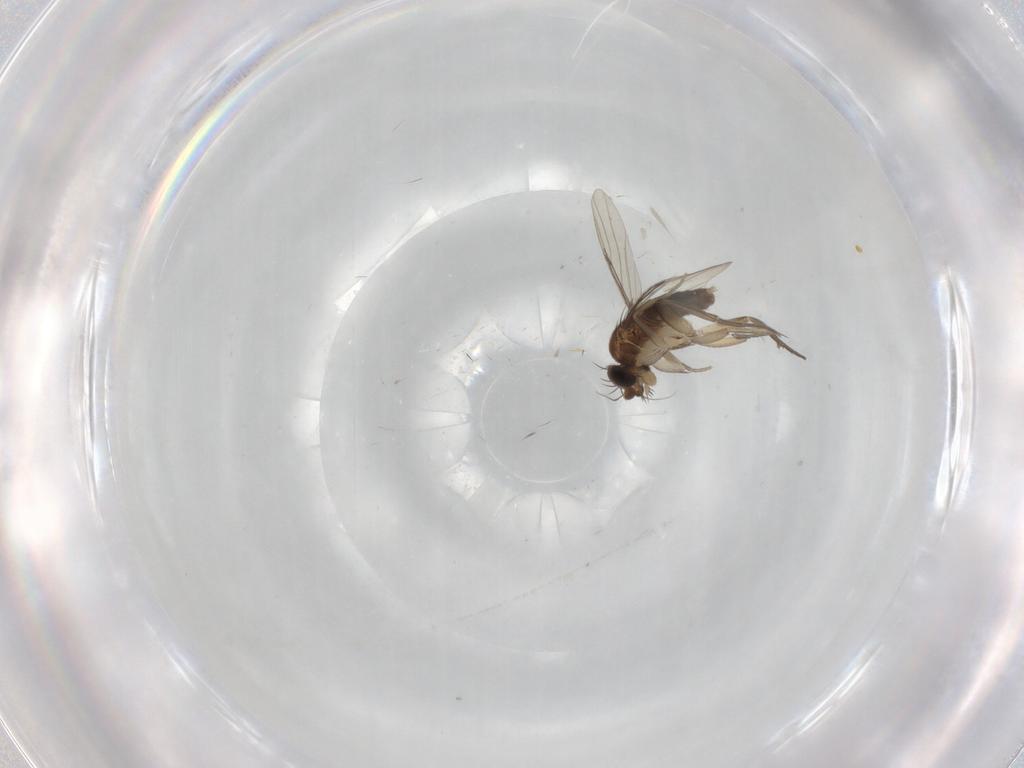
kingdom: Animalia
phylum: Arthropoda
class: Insecta
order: Diptera
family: Phoridae
